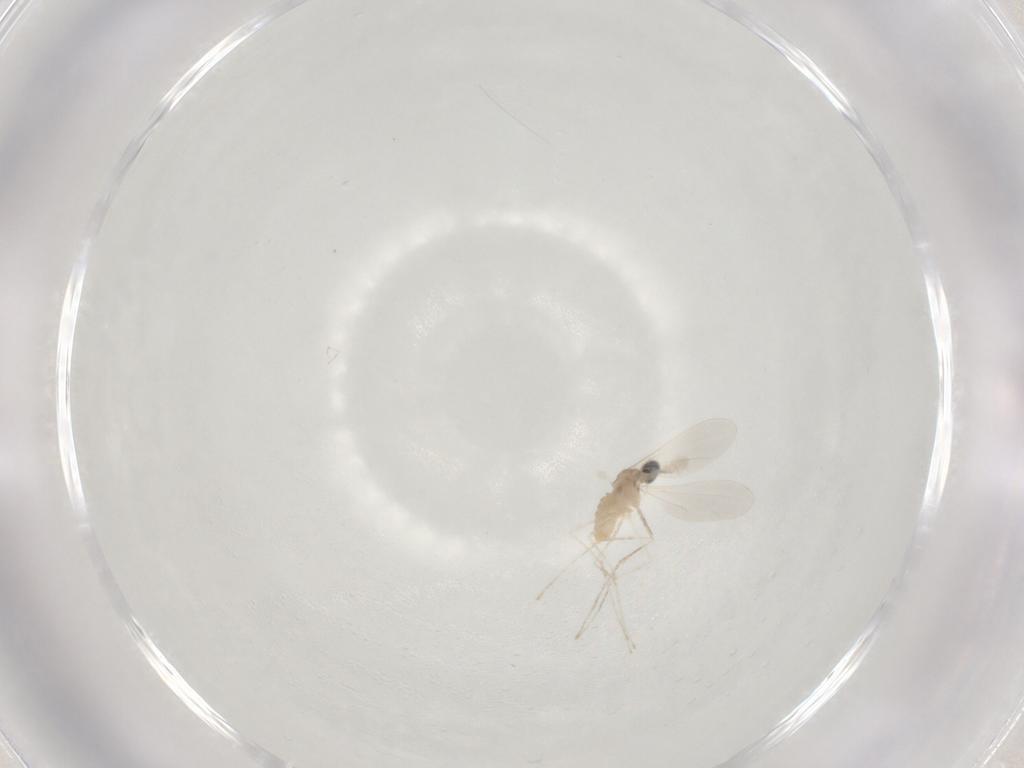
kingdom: Animalia
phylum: Arthropoda
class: Insecta
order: Diptera
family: Cecidomyiidae
